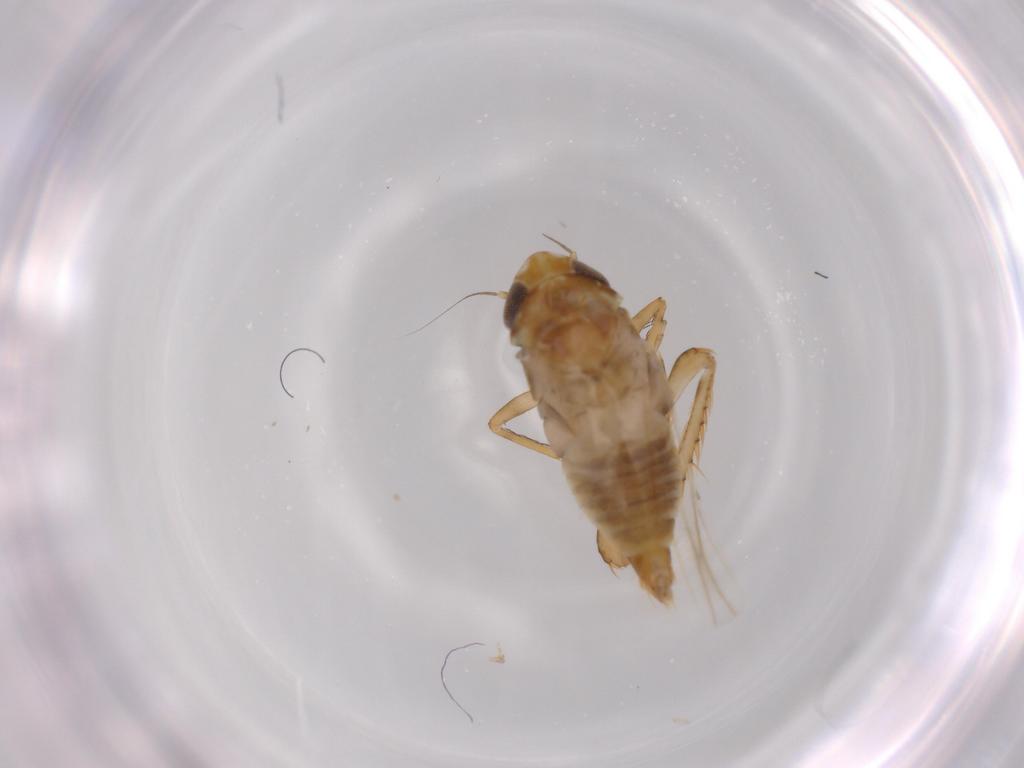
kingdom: Animalia
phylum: Arthropoda
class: Insecta
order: Hemiptera
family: Cicadellidae
